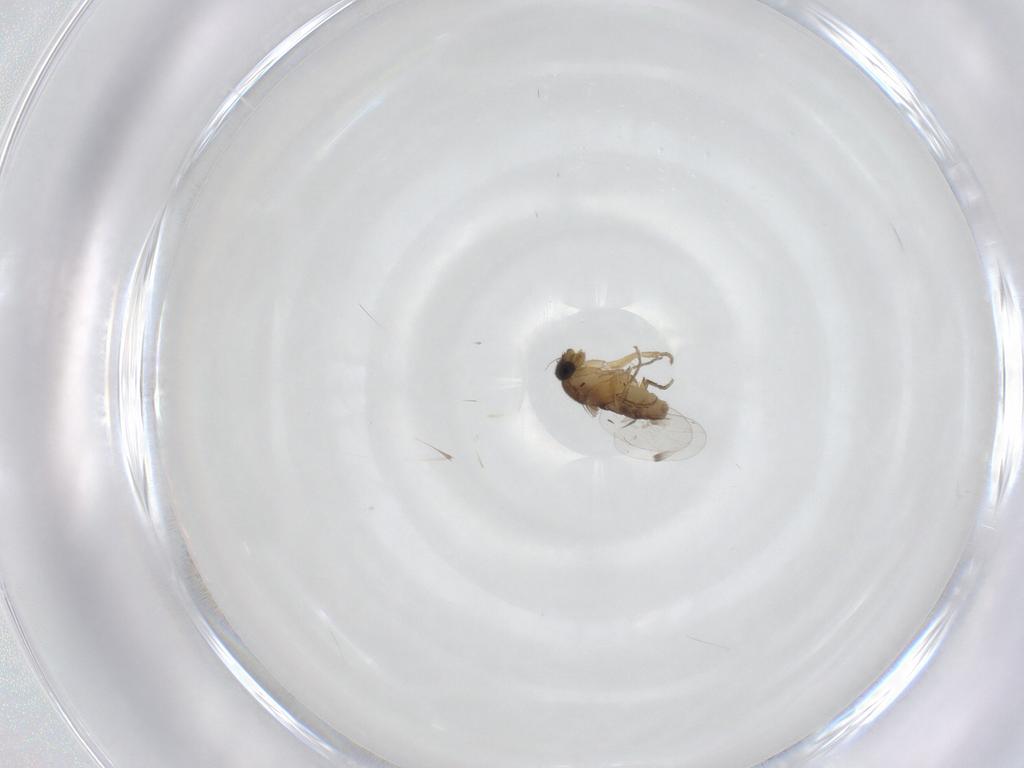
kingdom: Animalia
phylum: Arthropoda
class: Insecta
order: Diptera
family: Phoridae
